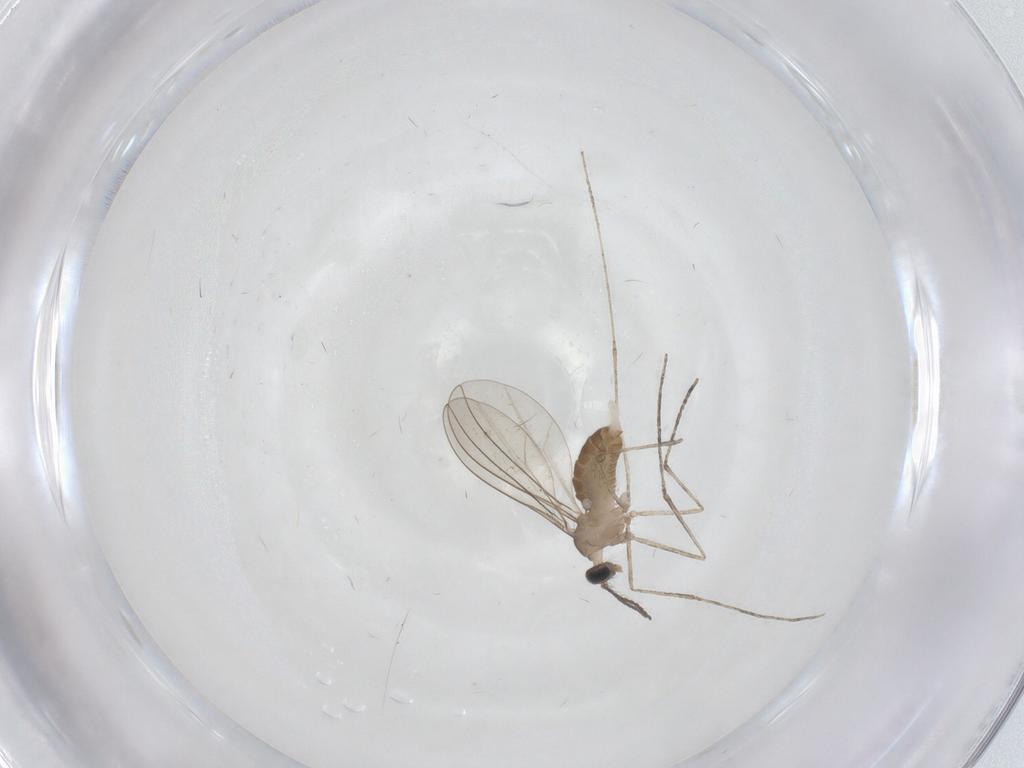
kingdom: Animalia
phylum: Arthropoda
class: Insecta
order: Diptera
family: Cecidomyiidae
